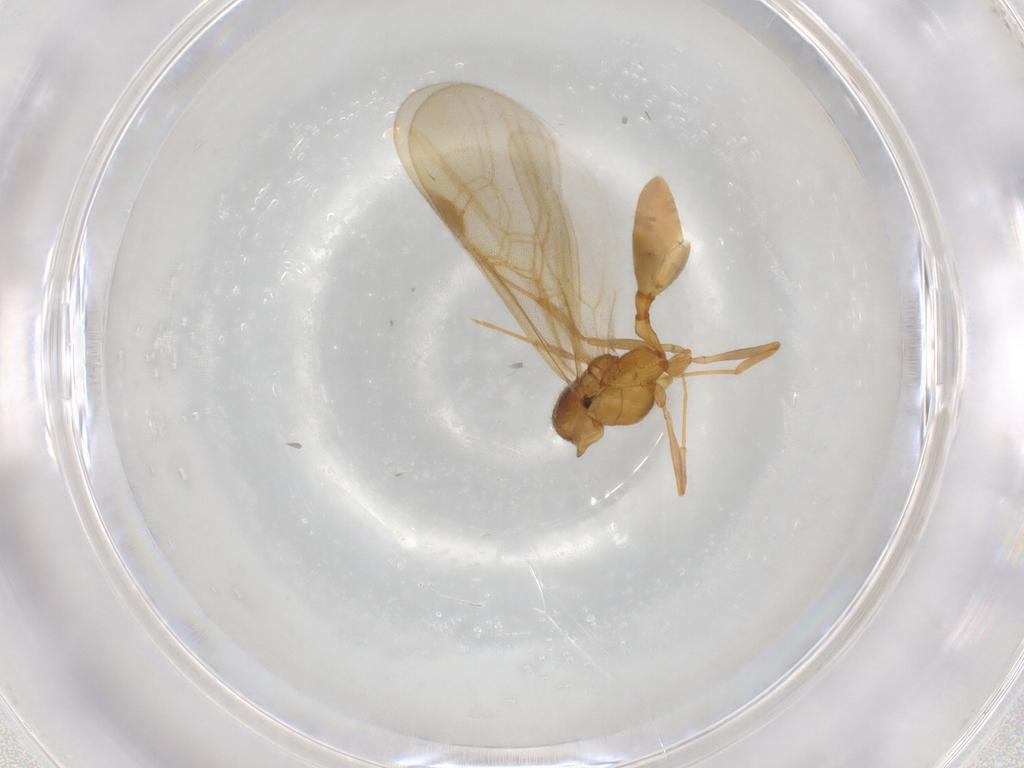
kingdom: Animalia
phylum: Arthropoda
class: Insecta
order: Hymenoptera
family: Formicidae
